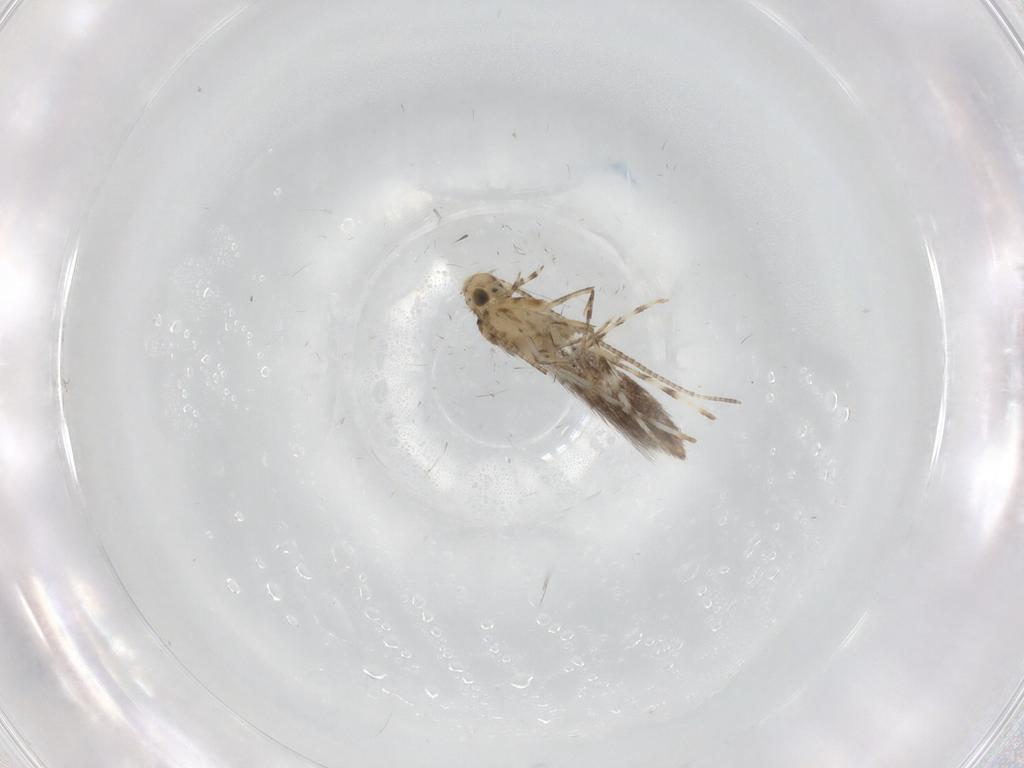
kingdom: Animalia
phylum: Arthropoda
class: Insecta
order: Lepidoptera
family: Gracillariidae
